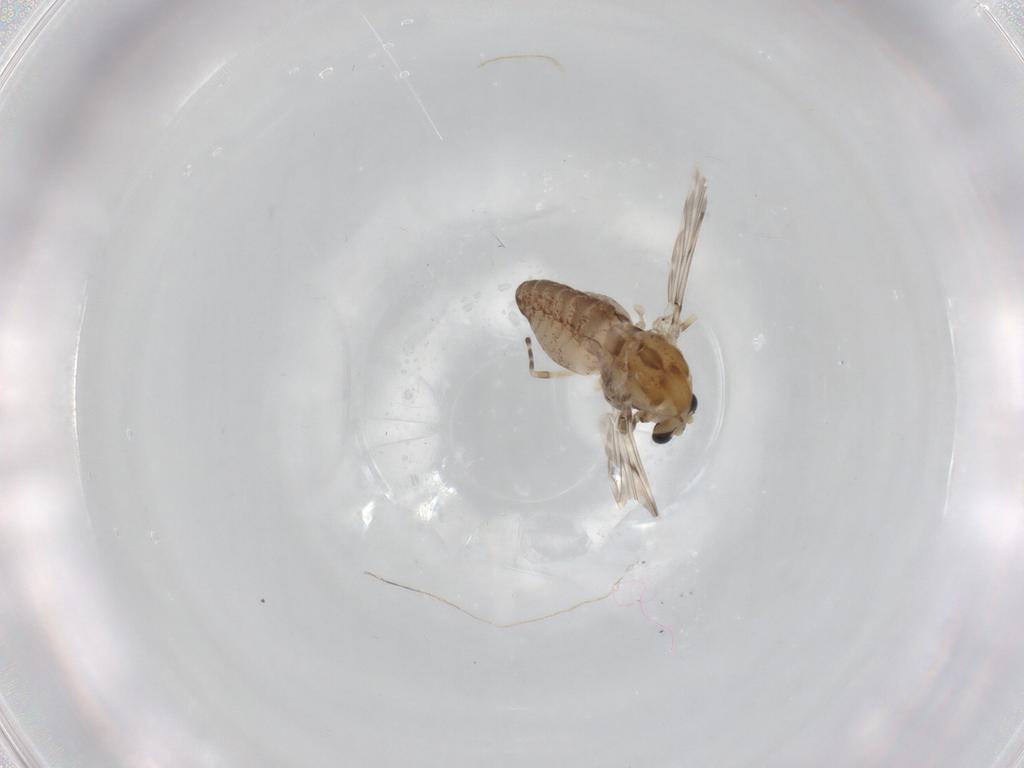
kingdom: Animalia
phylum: Arthropoda
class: Insecta
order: Diptera
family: Chironomidae
